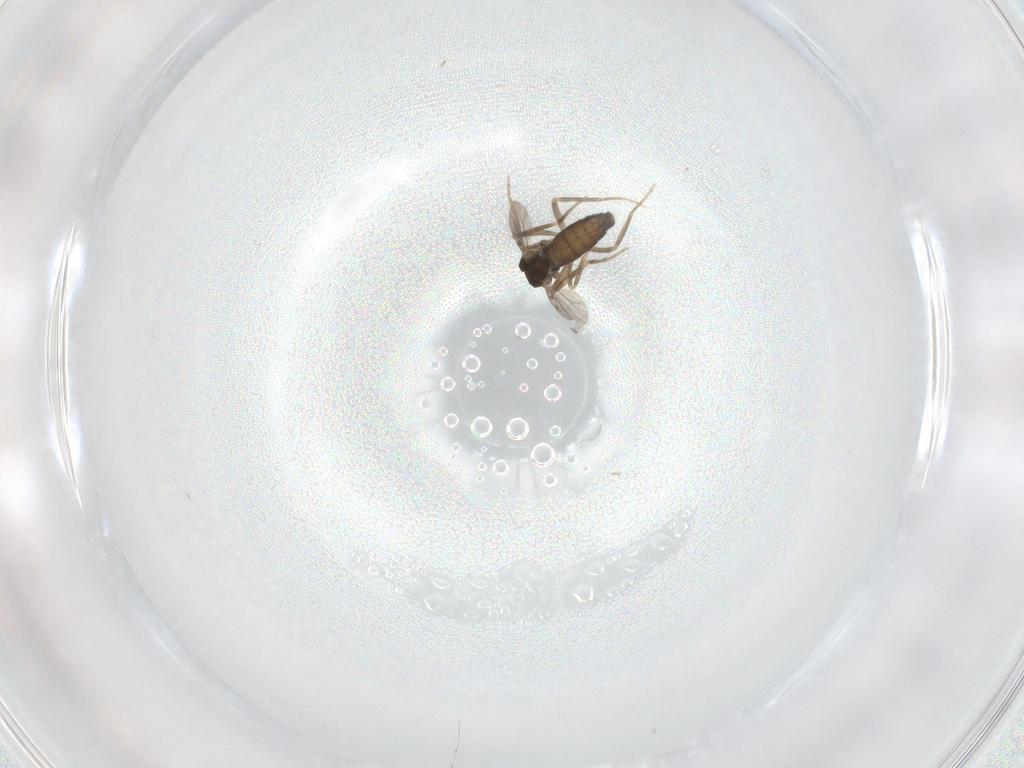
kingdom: Animalia
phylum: Arthropoda
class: Insecta
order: Diptera
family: Ceratopogonidae
